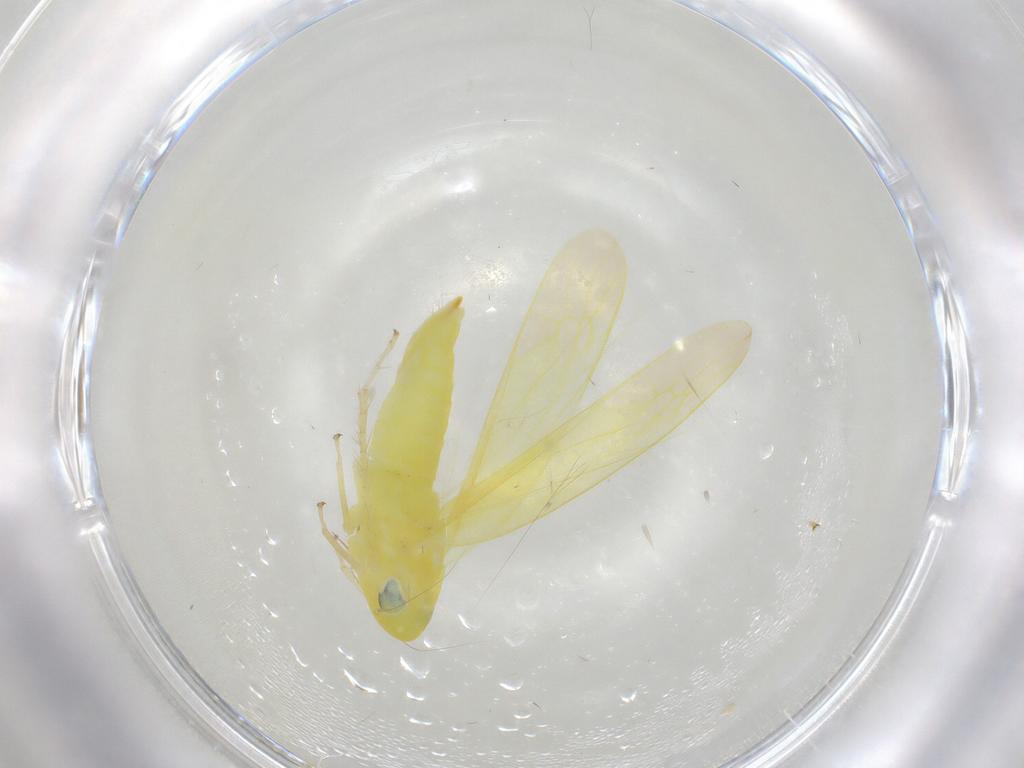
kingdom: Animalia
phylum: Arthropoda
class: Insecta
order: Hemiptera
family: Cicadellidae
